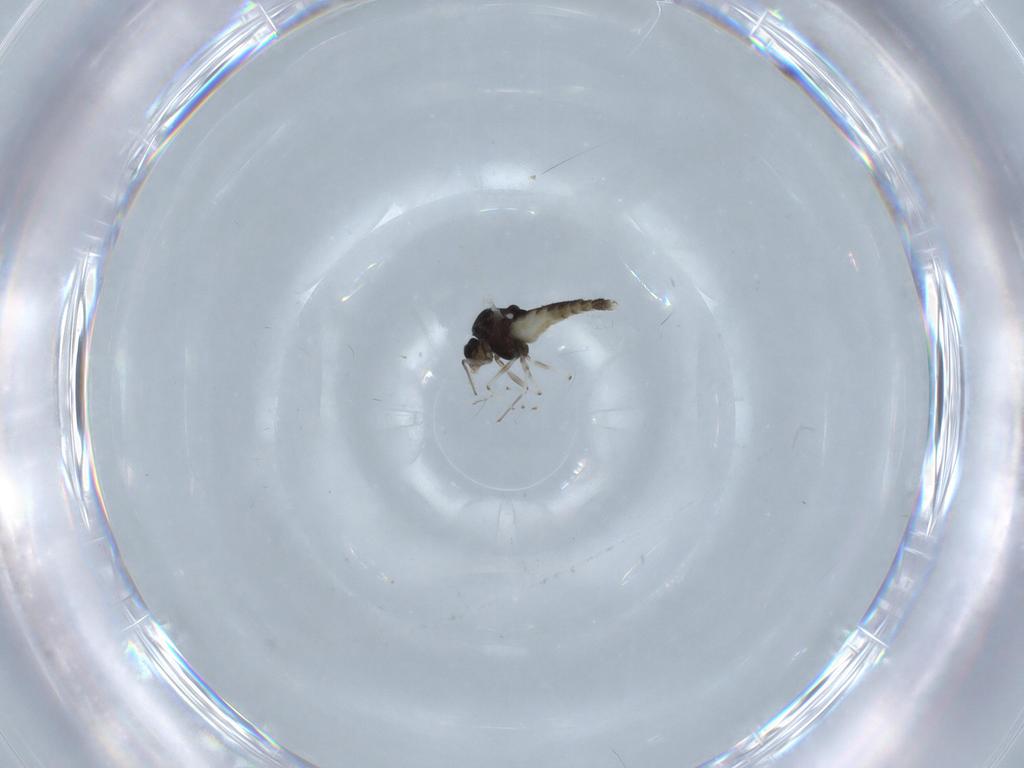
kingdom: Animalia
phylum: Arthropoda
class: Insecta
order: Diptera
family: Chironomidae
